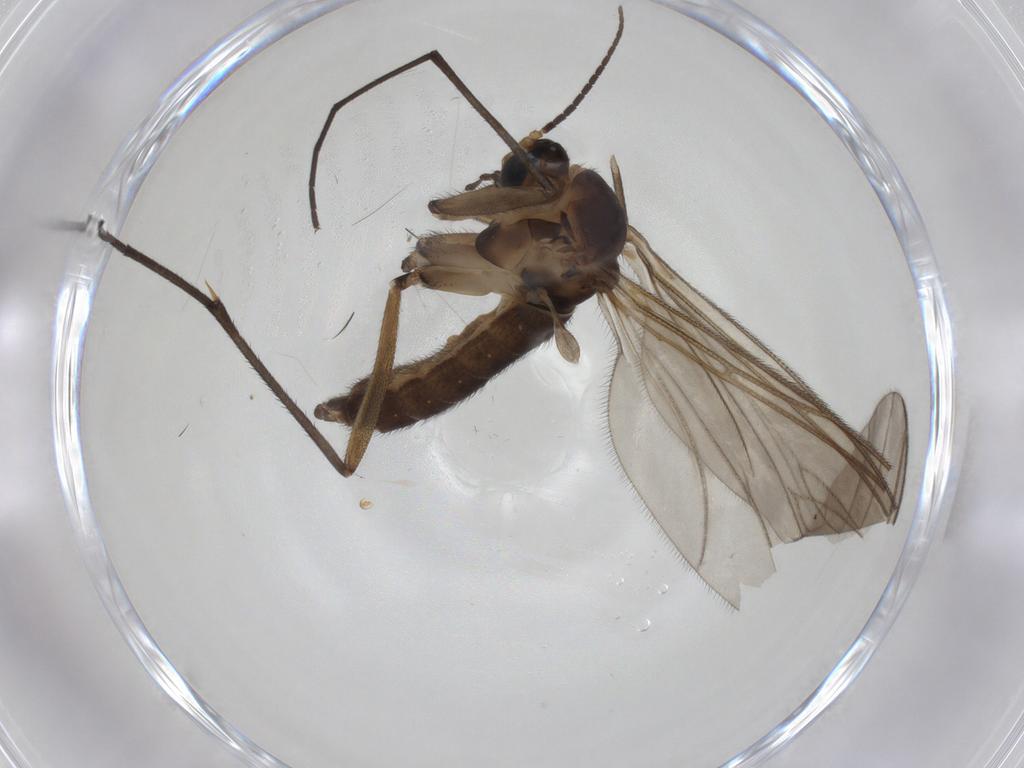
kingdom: Animalia
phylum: Arthropoda
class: Insecta
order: Diptera
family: Sciaridae
